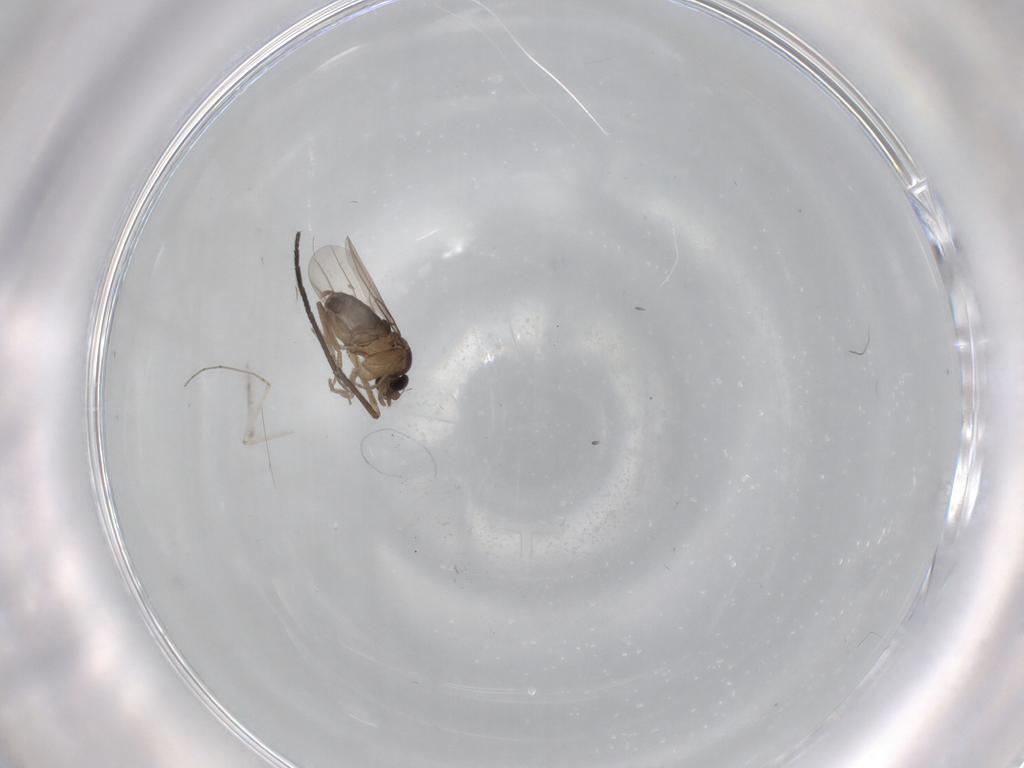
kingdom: Animalia
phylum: Arthropoda
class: Insecta
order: Diptera
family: Phoridae
